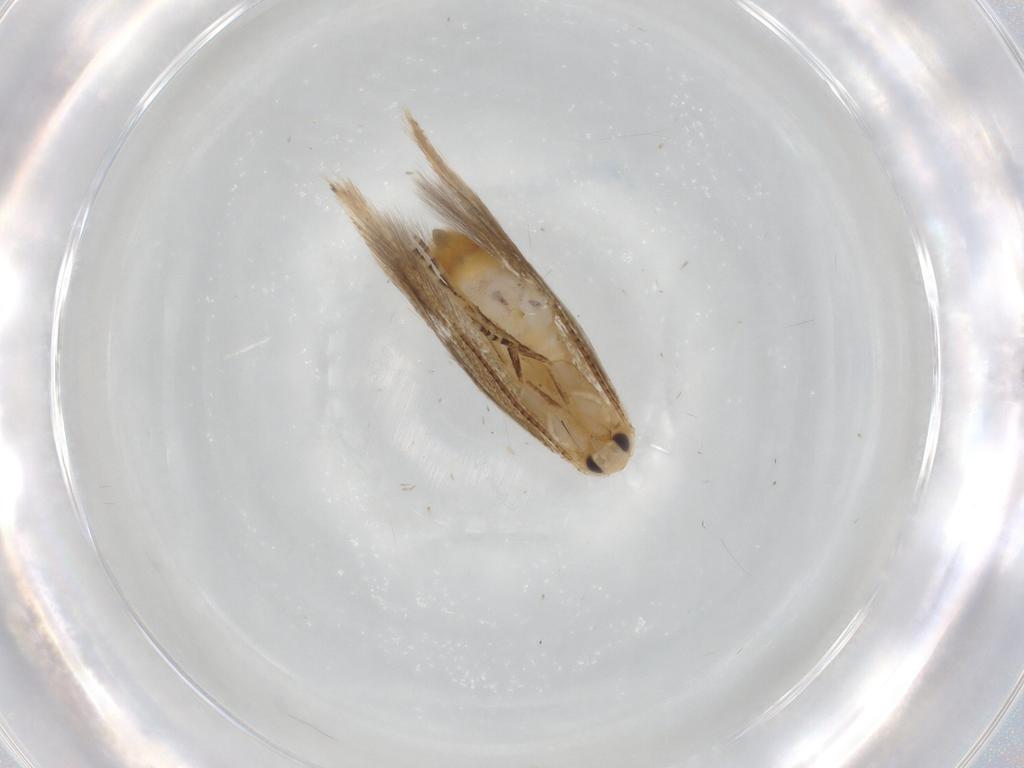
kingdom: Animalia
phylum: Arthropoda
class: Insecta
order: Lepidoptera
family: Bucculatricidae
